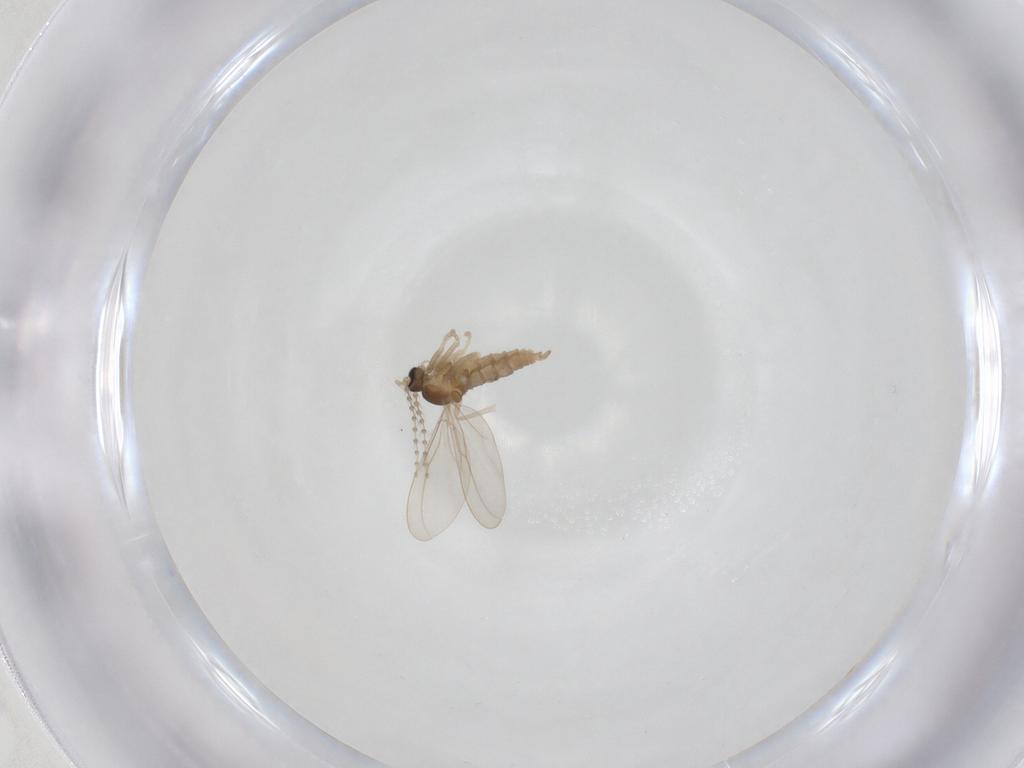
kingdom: Animalia
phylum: Arthropoda
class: Insecta
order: Diptera
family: Cecidomyiidae
